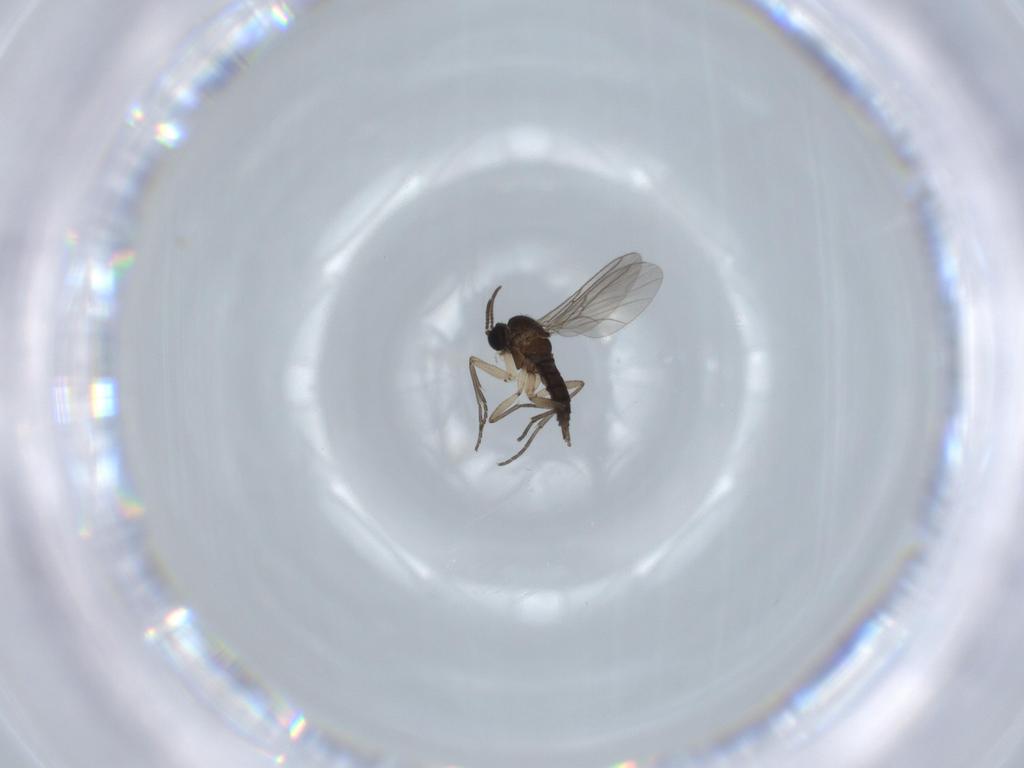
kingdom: Animalia
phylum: Arthropoda
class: Insecta
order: Diptera
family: Sciaridae
